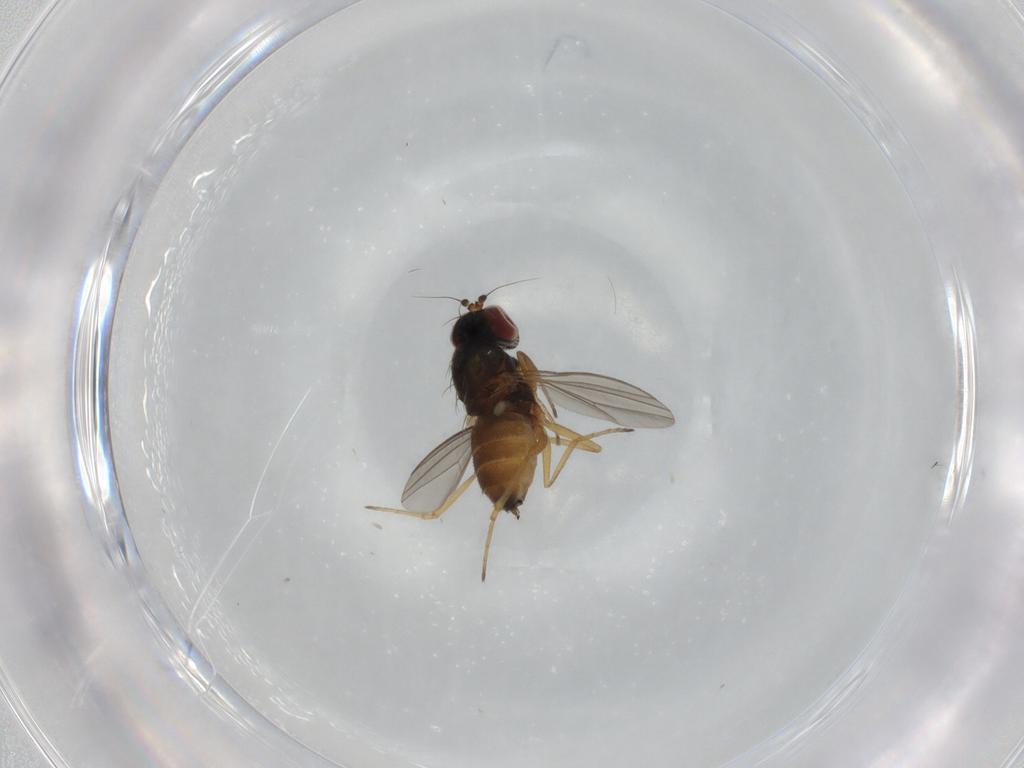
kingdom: Animalia
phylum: Arthropoda
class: Insecta
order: Diptera
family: Dolichopodidae
